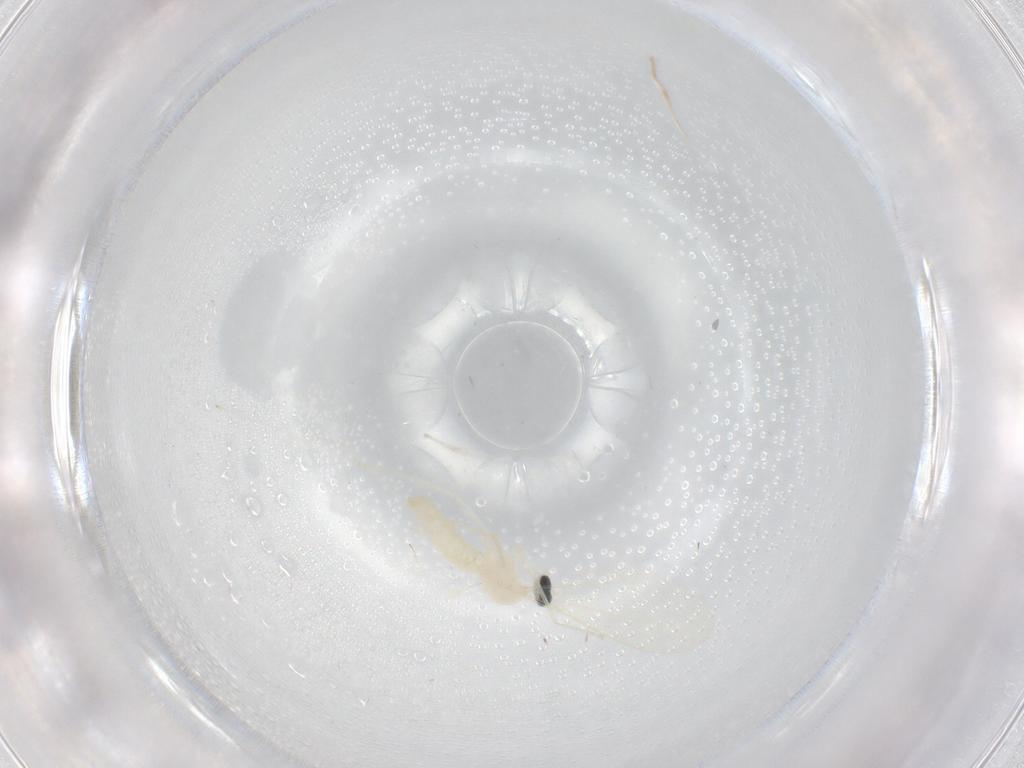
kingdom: Animalia
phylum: Arthropoda
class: Insecta
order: Diptera
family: Cecidomyiidae
